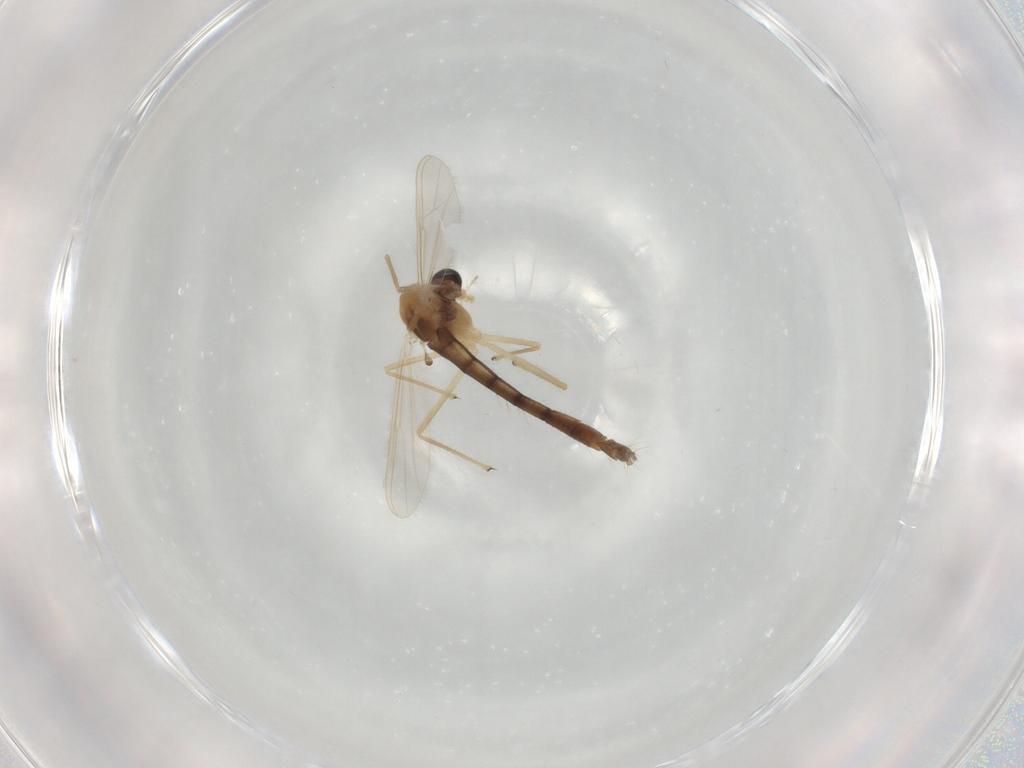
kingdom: Animalia
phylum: Arthropoda
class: Insecta
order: Diptera
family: Chironomidae
